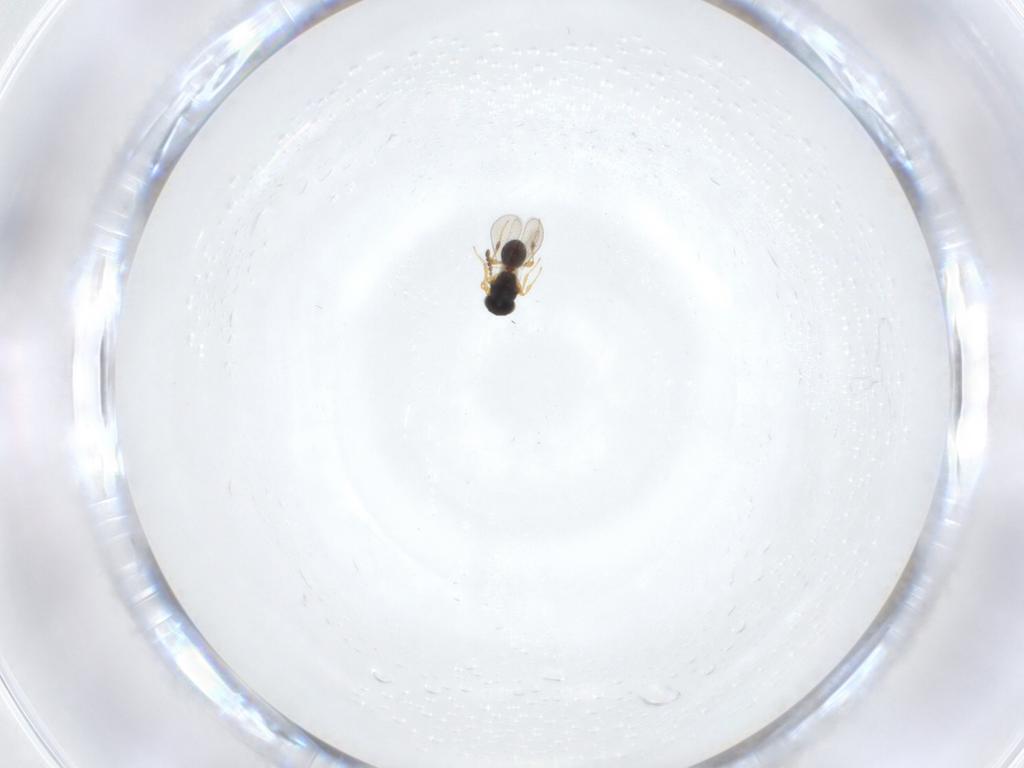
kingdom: Animalia
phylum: Arthropoda
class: Insecta
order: Hymenoptera
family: Platygastridae
